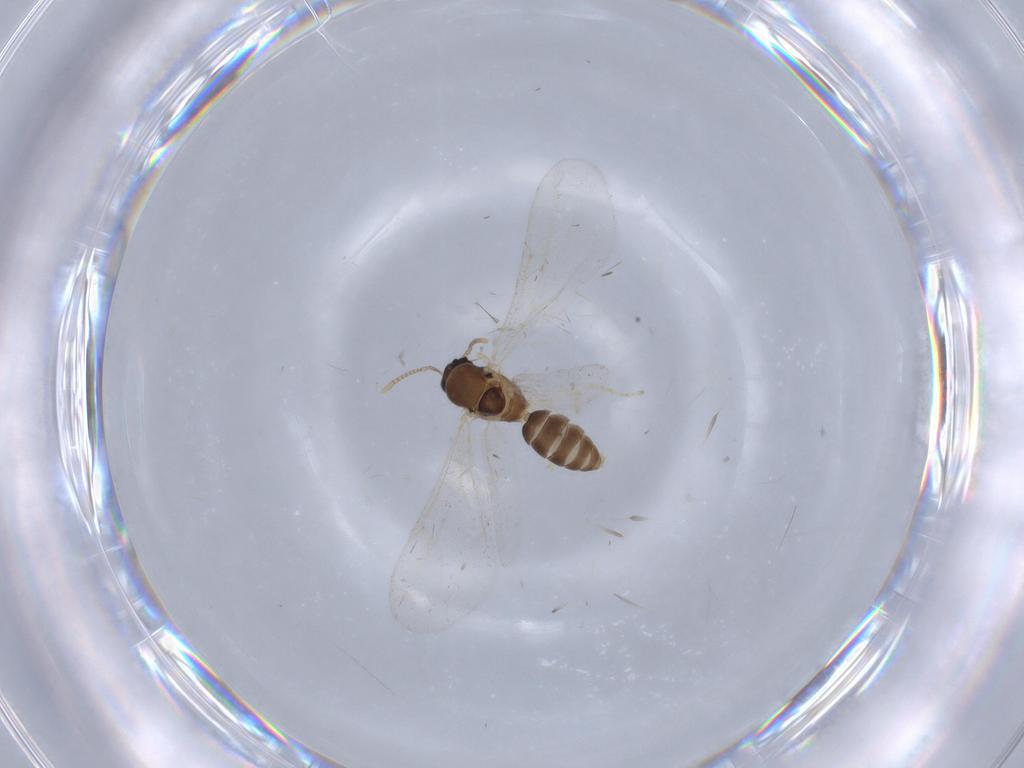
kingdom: Animalia
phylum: Arthropoda
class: Insecta
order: Hymenoptera
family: Formicidae
